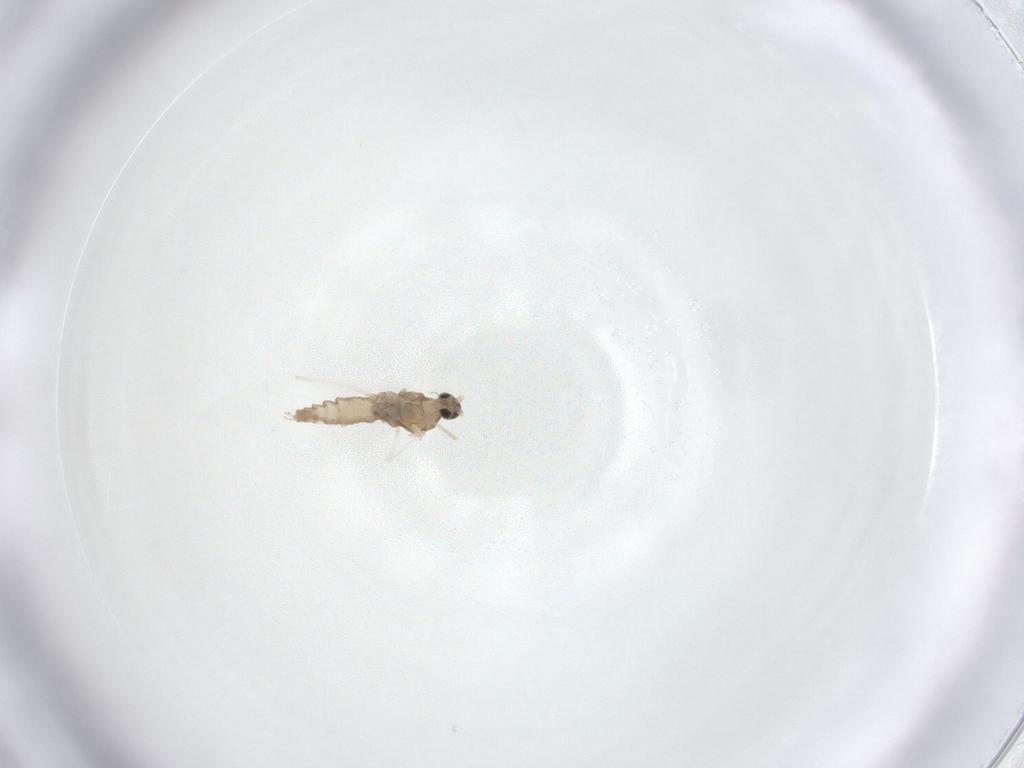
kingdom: Animalia
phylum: Arthropoda
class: Insecta
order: Diptera
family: Cecidomyiidae
